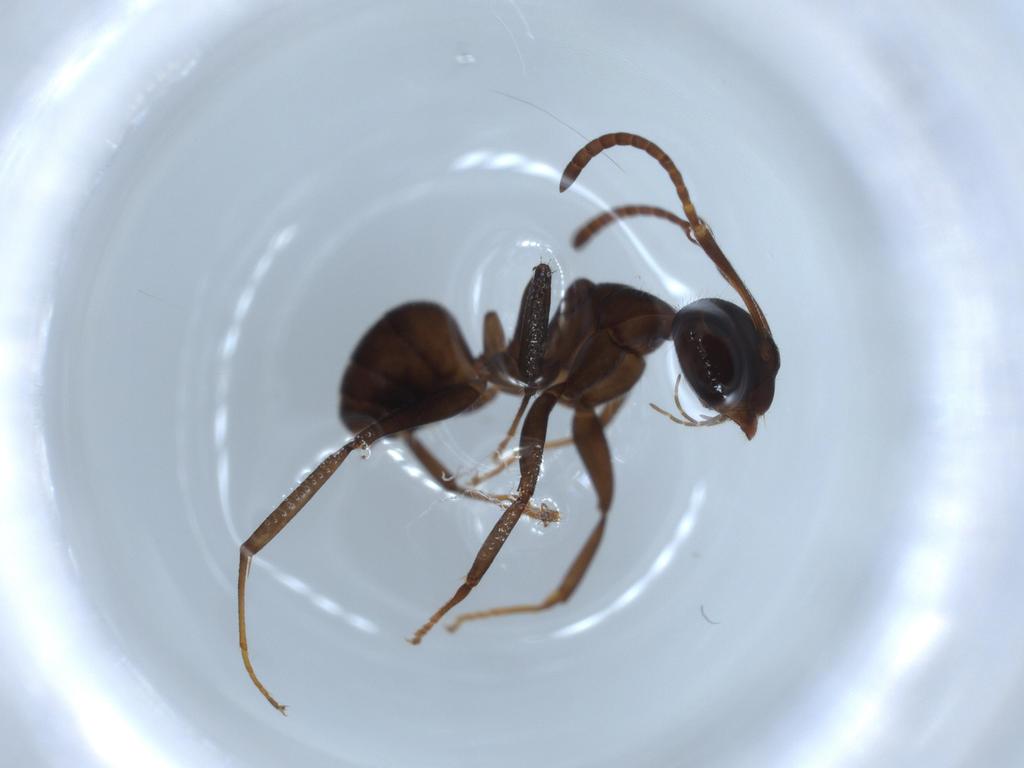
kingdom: Animalia
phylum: Arthropoda
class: Insecta
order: Hymenoptera
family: Formicidae
